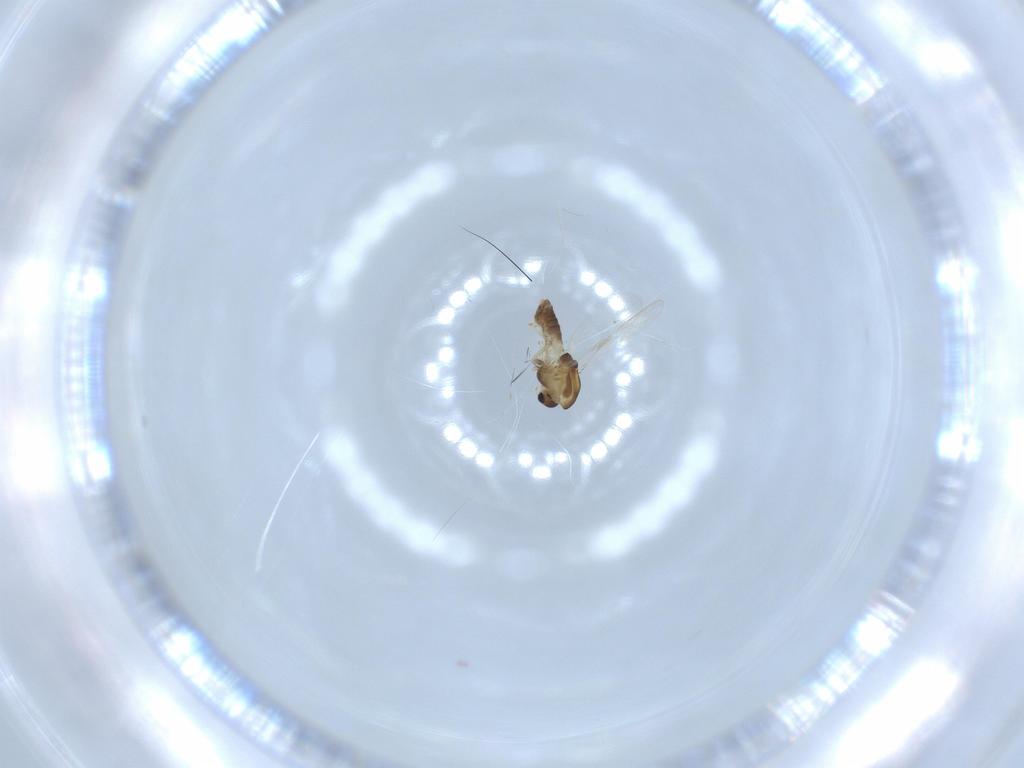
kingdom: Animalia
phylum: Arthropoda
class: Insecta
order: Diptera
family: Chironomidae
